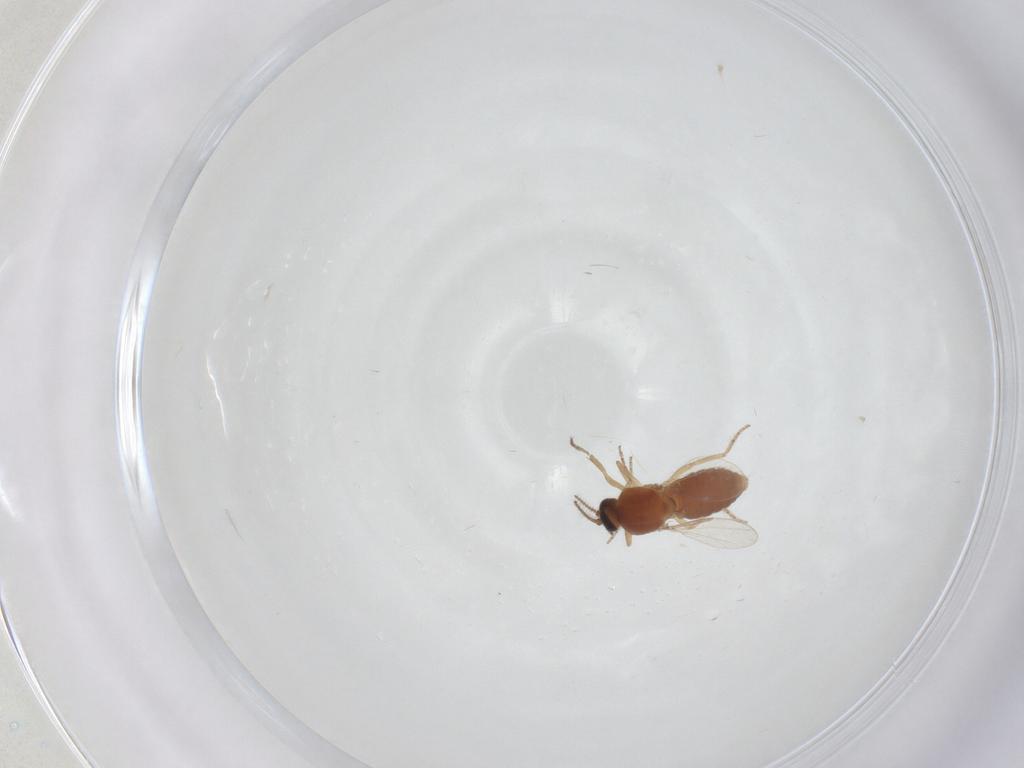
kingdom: Animalia
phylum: Arthropoda
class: Insecta
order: Diptera
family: Ceratopogonidae
